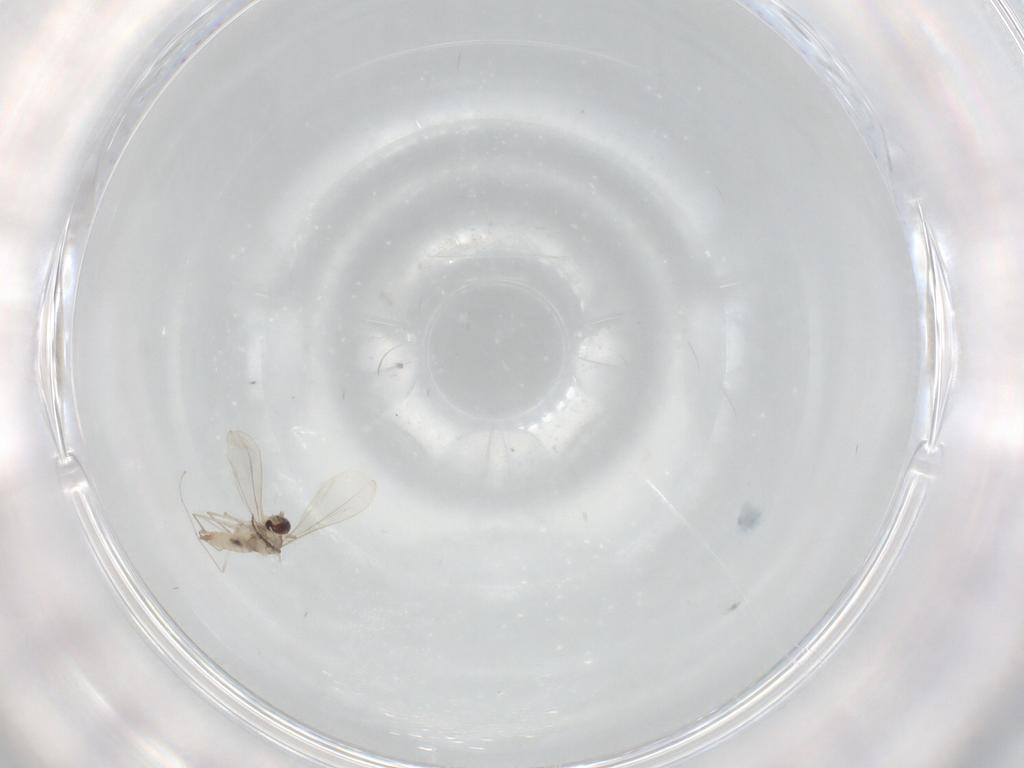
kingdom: Animalia
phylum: Arthropoda
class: Insecta
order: Diptera
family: Cecidomyiidae
